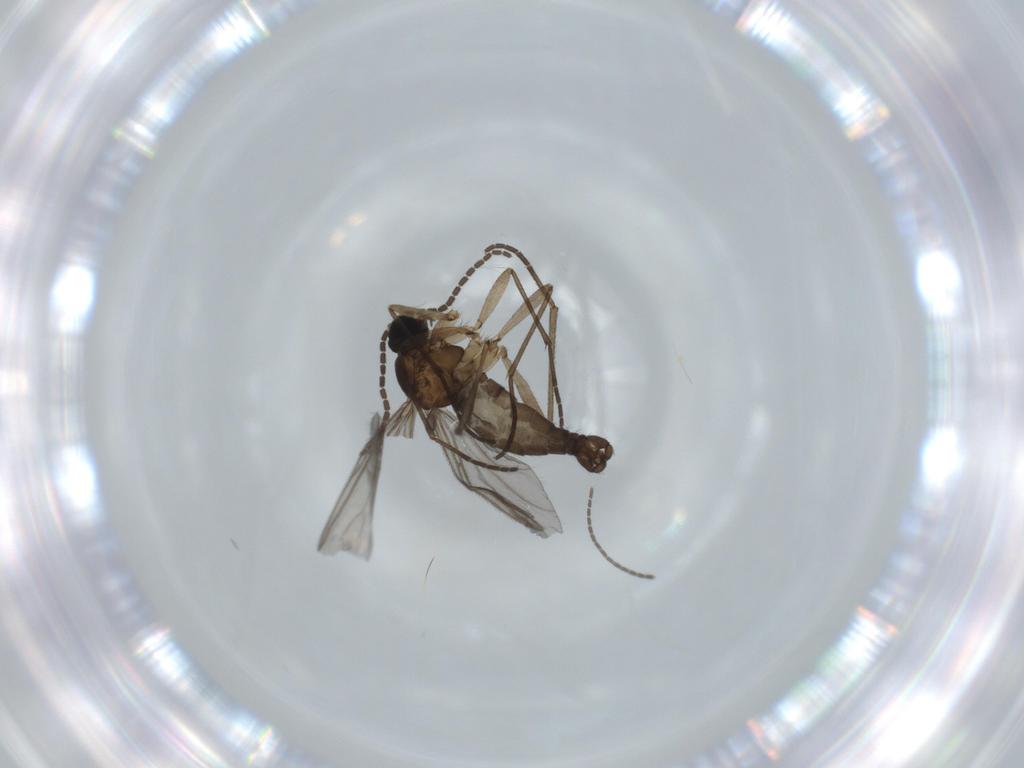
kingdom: Animalia
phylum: Arthropoda
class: Insecta
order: Diptera
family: Sciaridae
